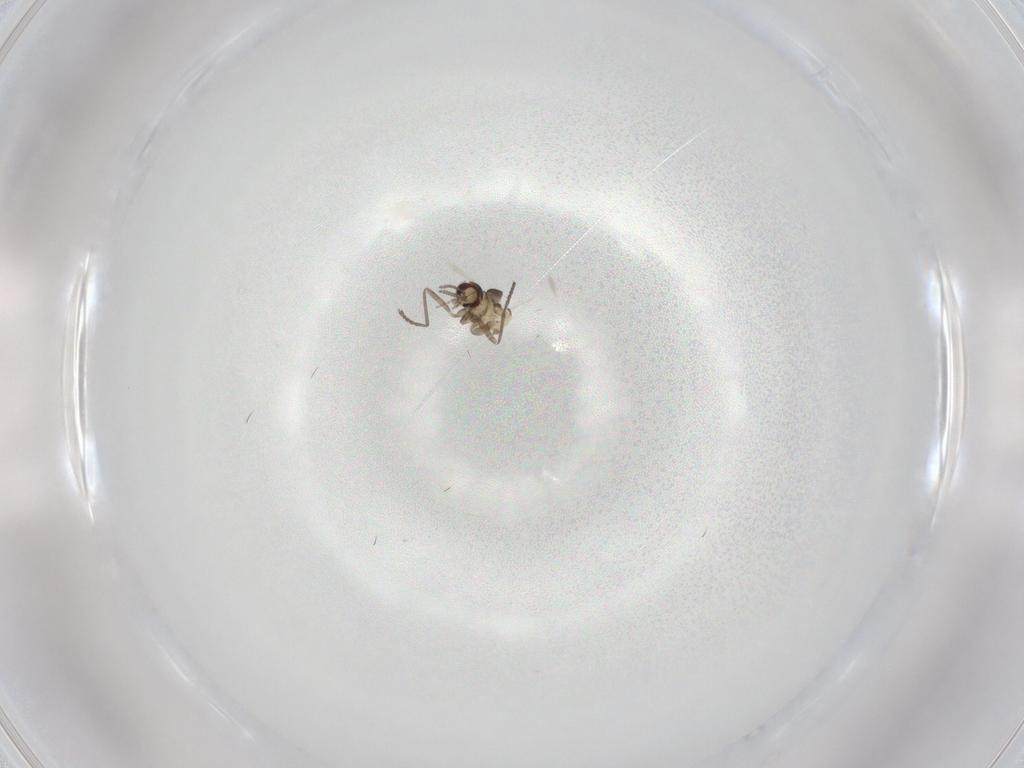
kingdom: Animalia
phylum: Arthropoda
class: Insecta
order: Diptera
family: Cecidomyiidae
